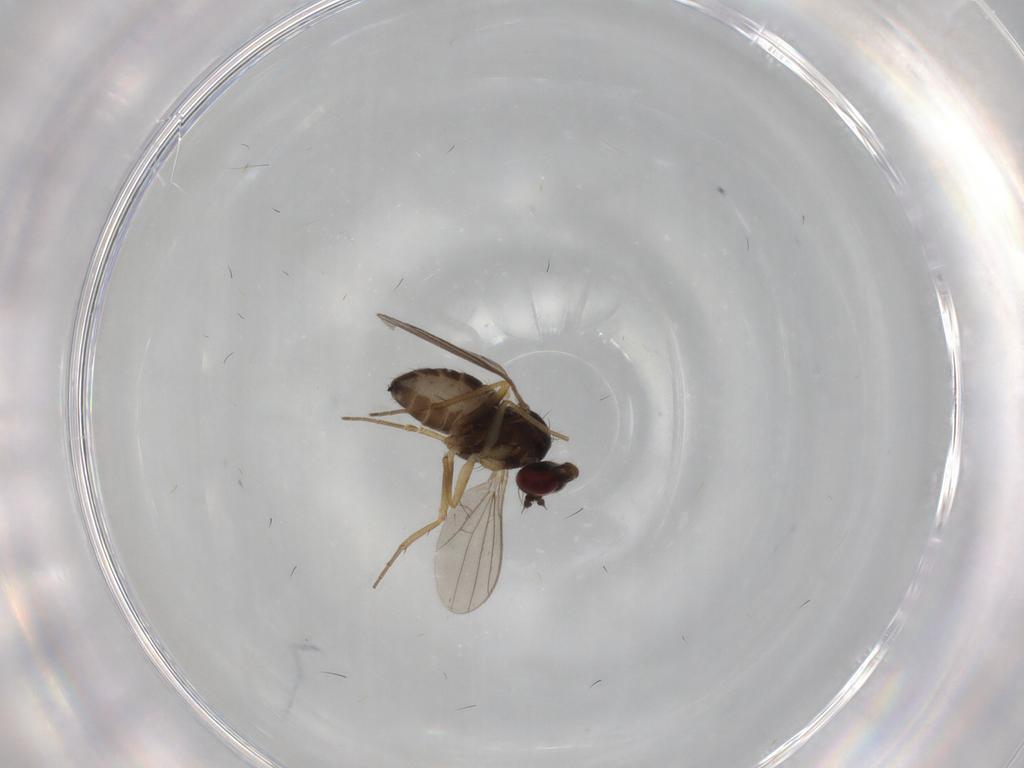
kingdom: Animalia
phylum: Arthropoda
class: Insecta
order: Diptera
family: Dolichopodidae
